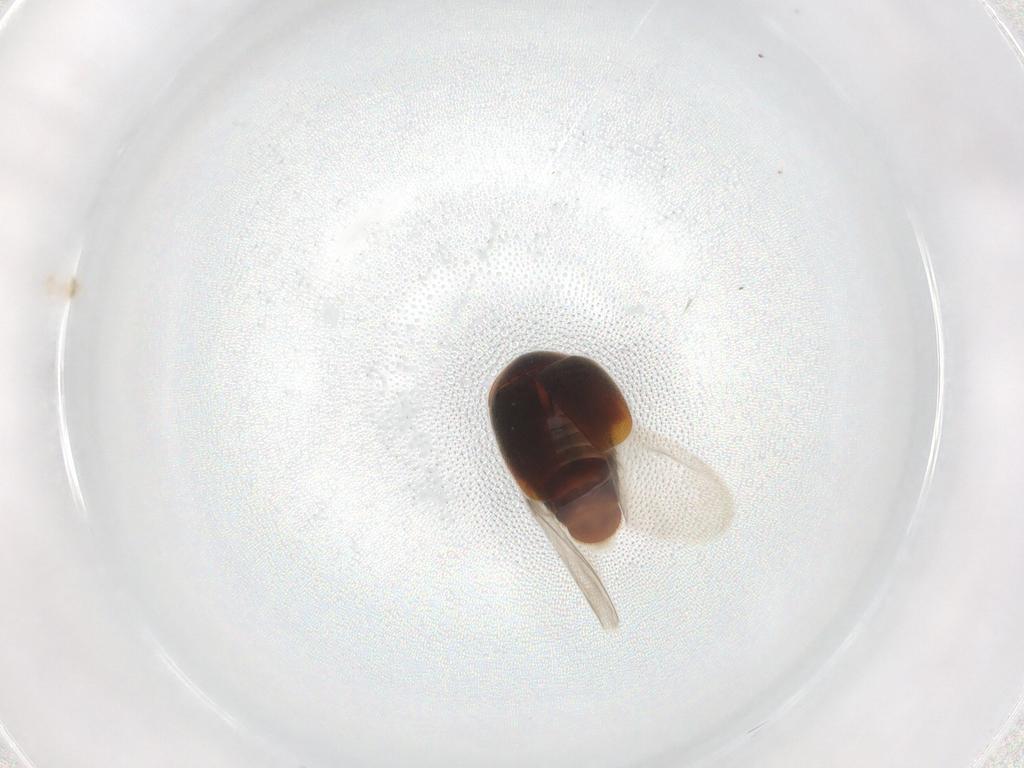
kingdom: Animalia
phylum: Arthropoda
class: Insecta
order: Coleoptera
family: Corylophidae
